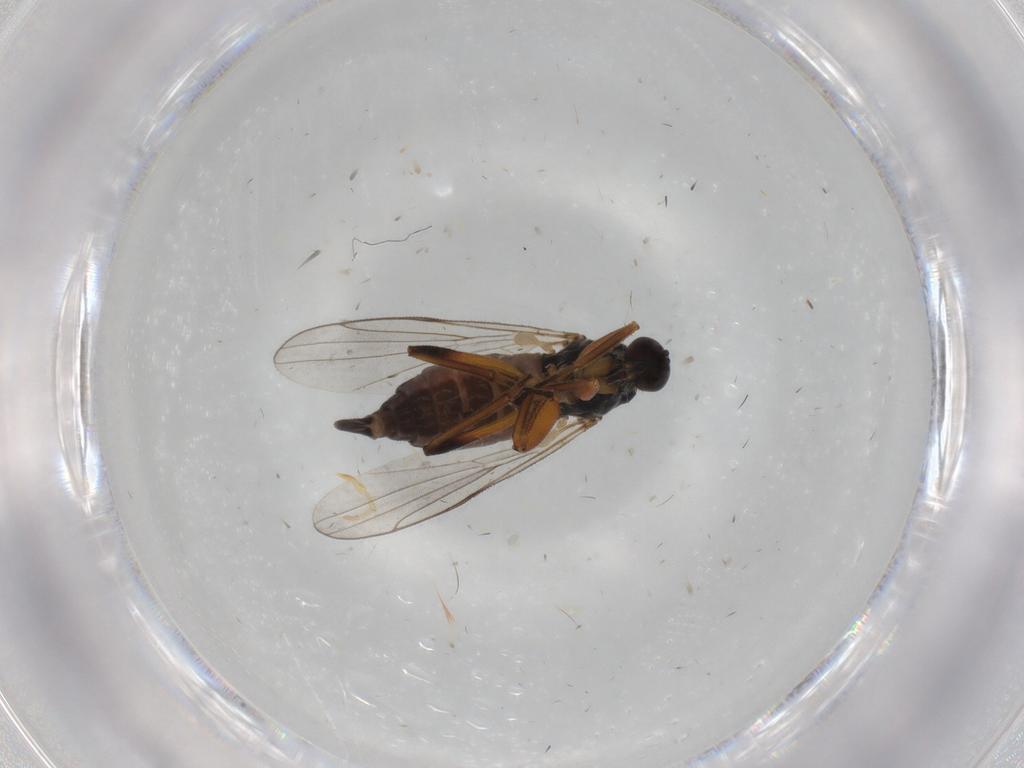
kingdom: Animalia
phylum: Arthropoda
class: Insecta
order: Diptera
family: Hybotidae
